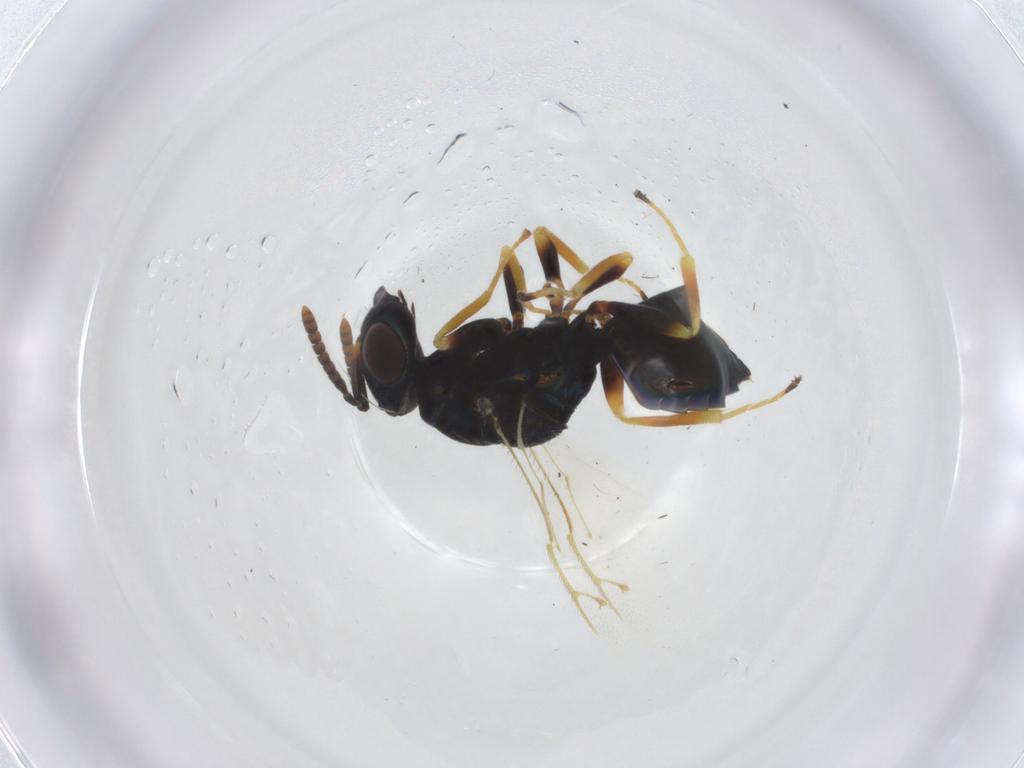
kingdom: Animalia
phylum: Arthropoda
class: Insecta
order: Hymenoptera
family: Pteromalidae
